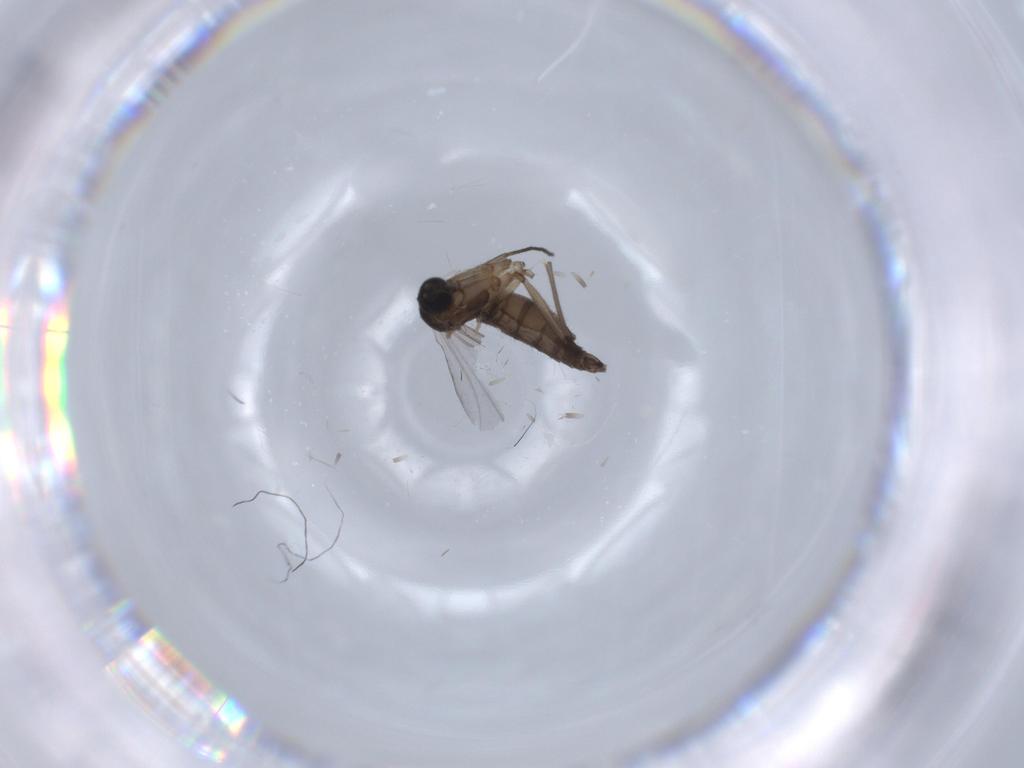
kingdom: Animalia
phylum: Arthropoda
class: Insecta
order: Diptera
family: Chironomidae
